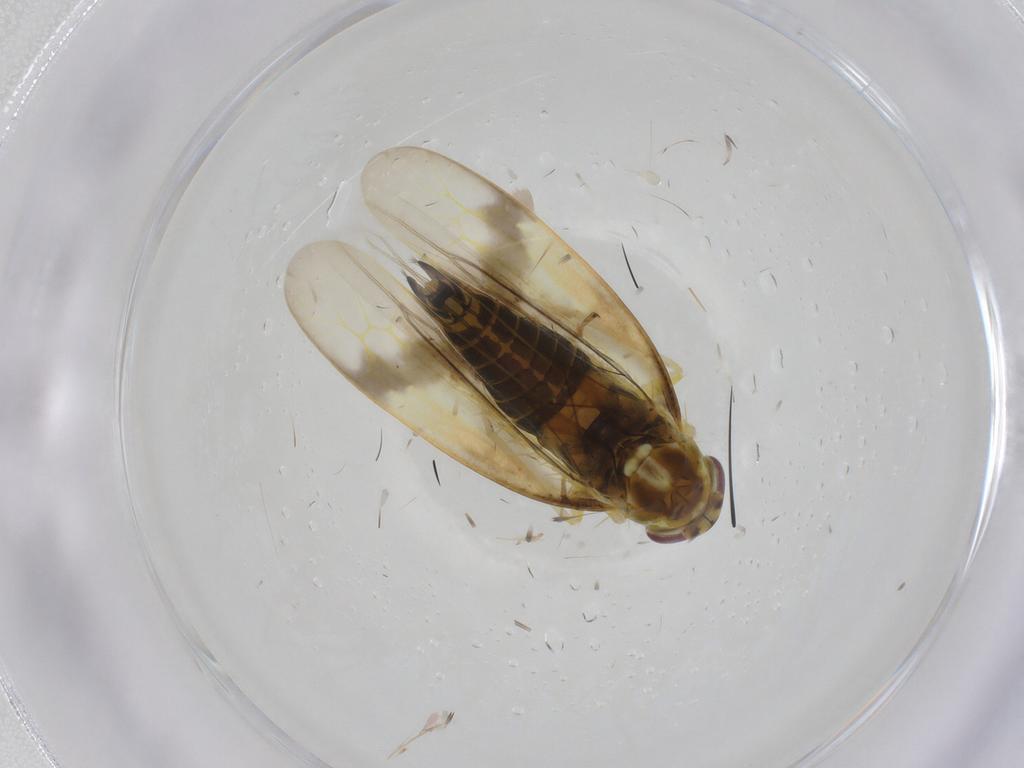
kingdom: Animalia
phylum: Arthropoda
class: Insecta
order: Hemiptera
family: Cicadellidae
